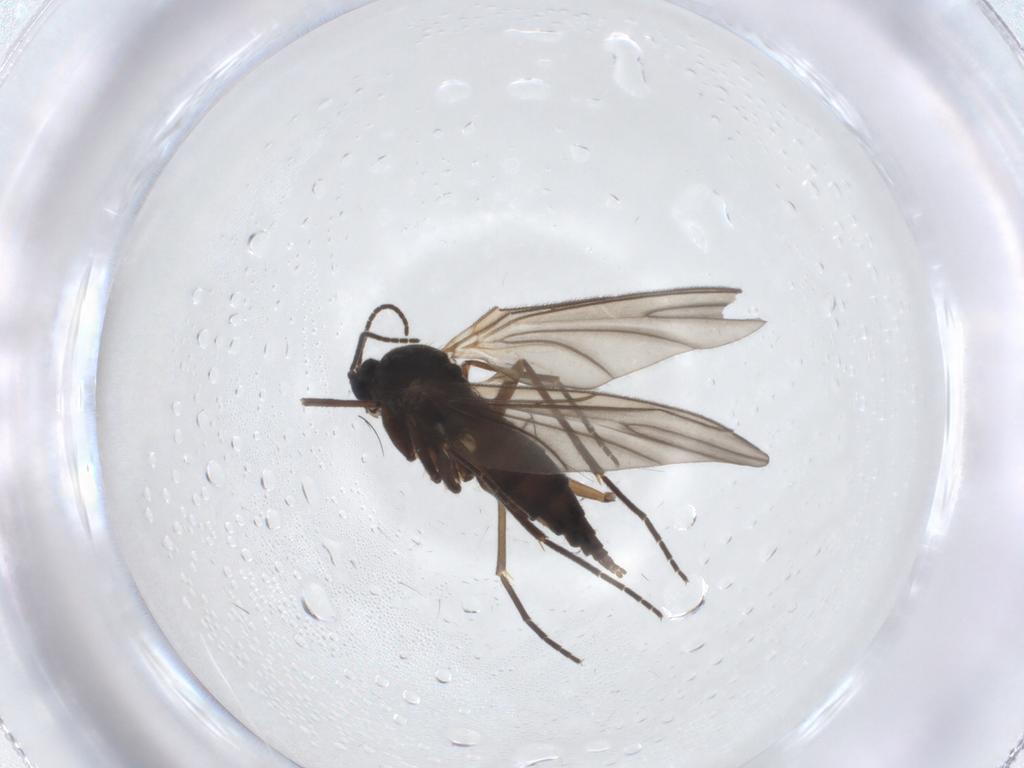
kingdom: Animalia
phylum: Arthropoda
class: Insecta
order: Diptera
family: Sciaridae
